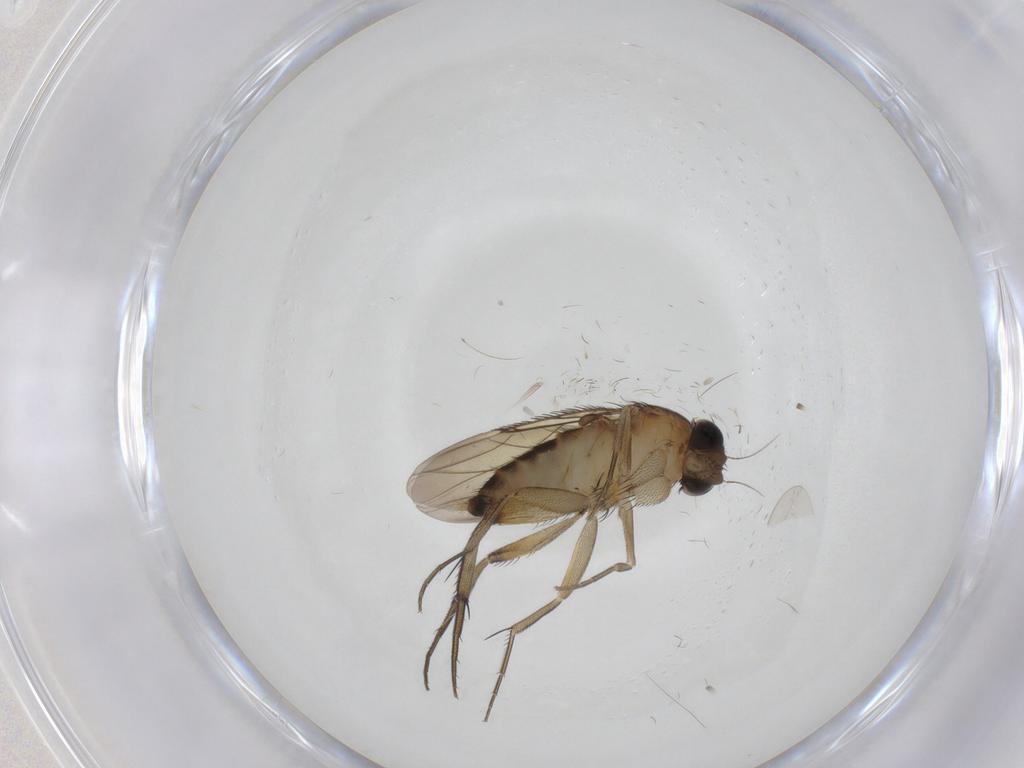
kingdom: Animalia
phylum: Arthropoda
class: Insecta
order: Diptera
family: Phoridae
